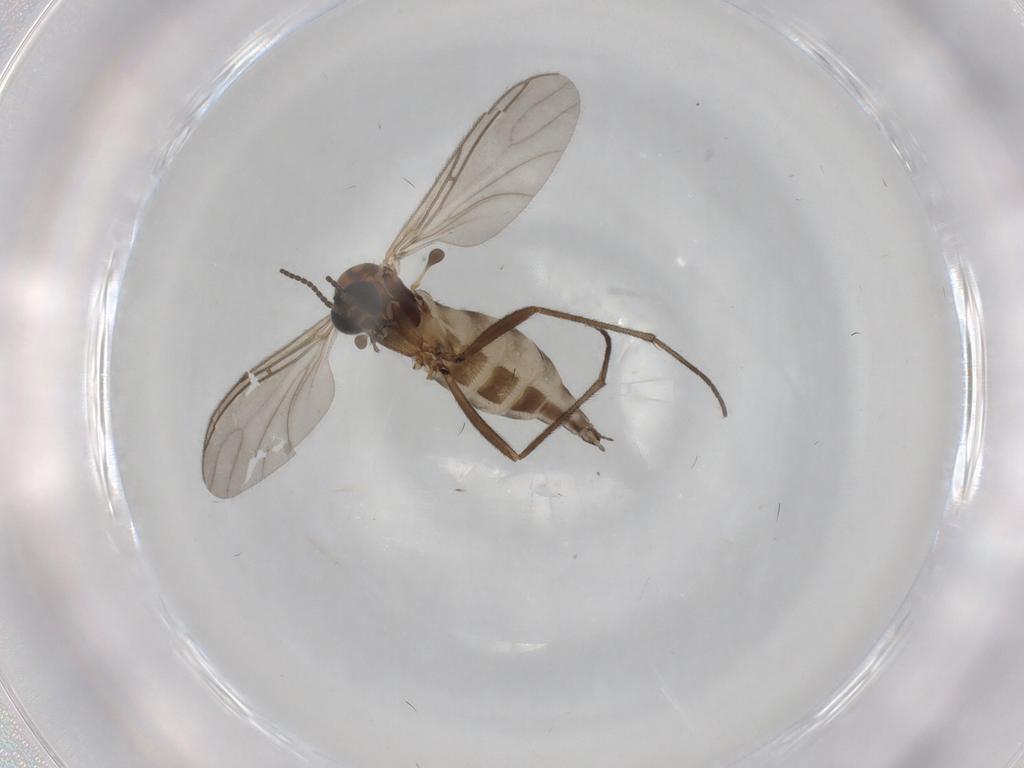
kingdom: Animalia
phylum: Arthropoda
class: Insecta
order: Diptera
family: Sciaridae
